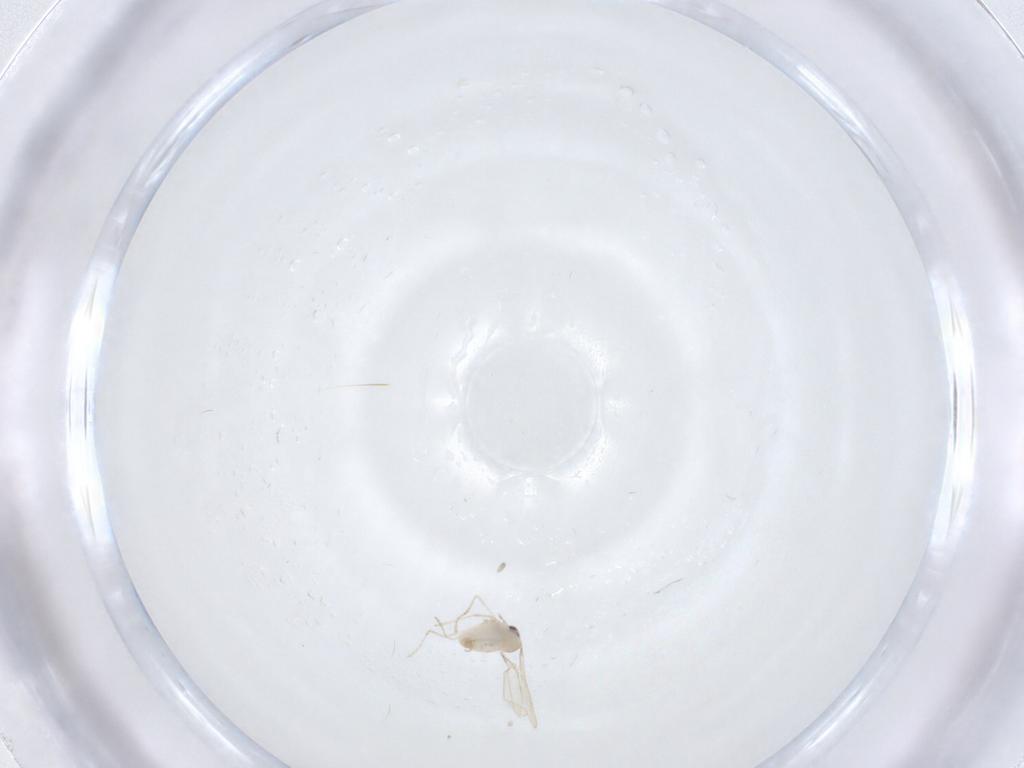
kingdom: Animalia
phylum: Arthropoda
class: Insecta
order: Diptera
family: Cecidomyiidae
